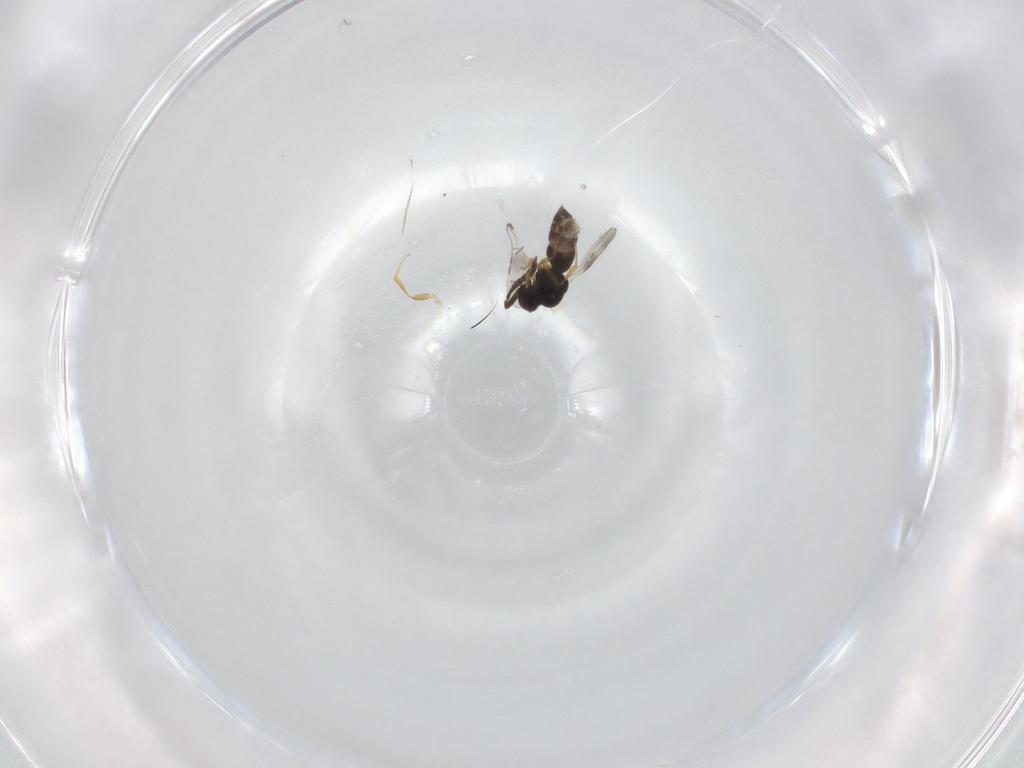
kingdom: Animalia
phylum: Arthropoda
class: Insecta
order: Hymenoptera
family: Ceraphronidae
